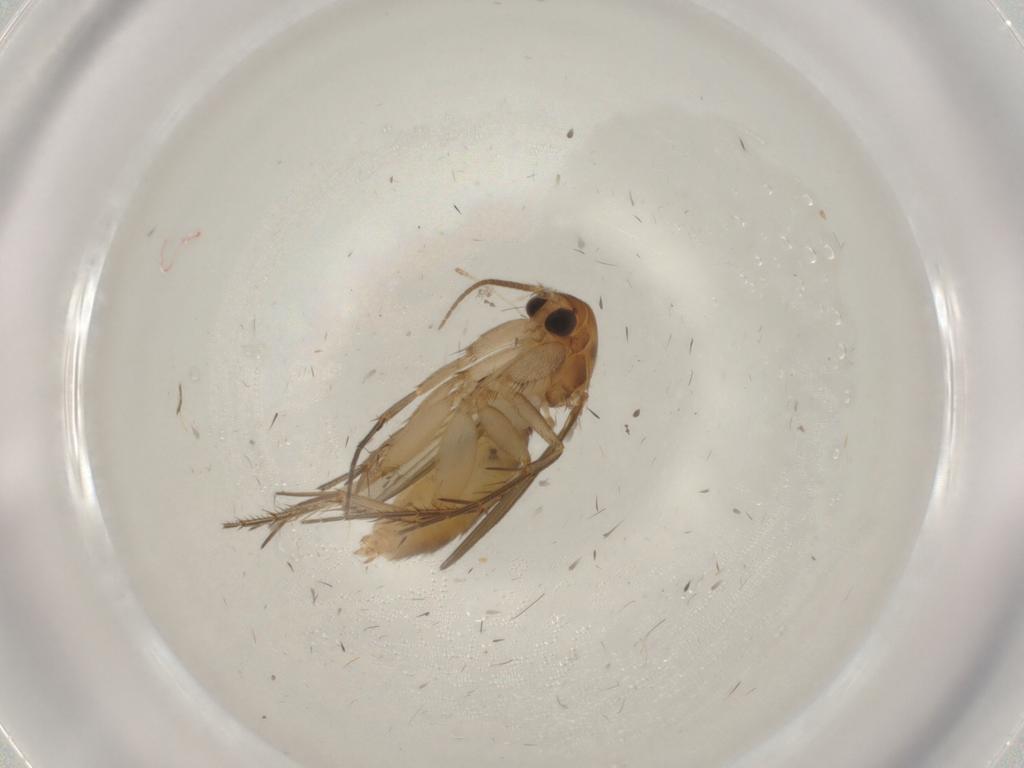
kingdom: Animalia
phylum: Arthropoda
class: Insecta
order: Diptera
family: Mycetophilidae
